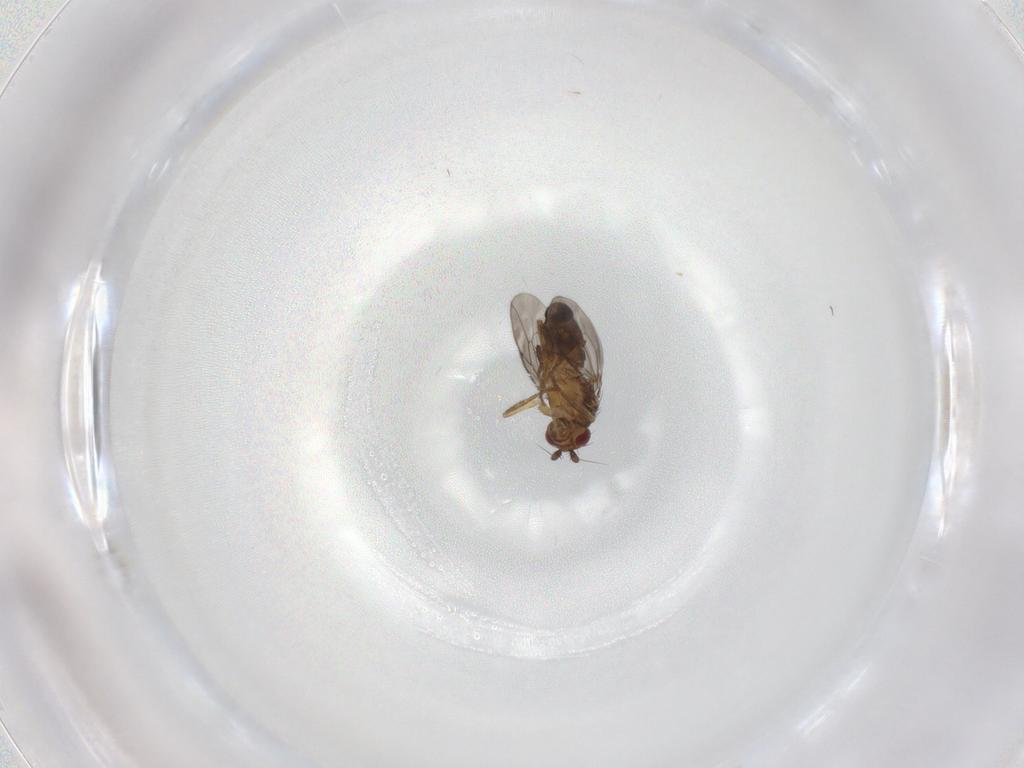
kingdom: Animalia
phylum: Arthropoda
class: Insecta
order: Diptera
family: Sphaeroceridae
